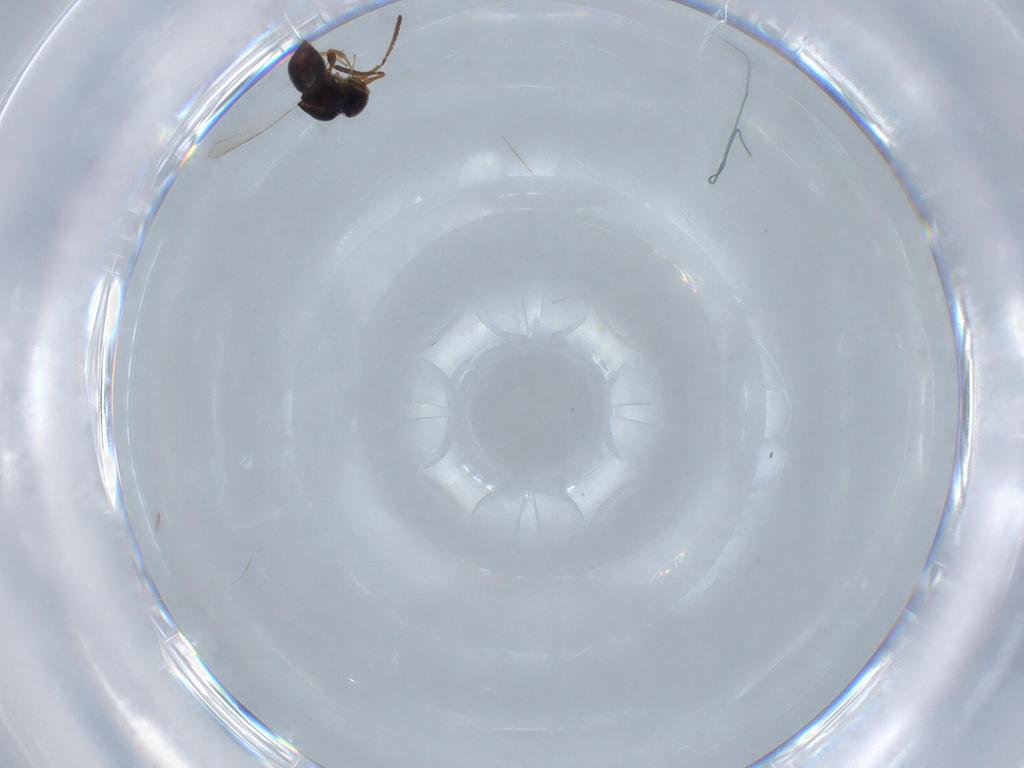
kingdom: Animalia
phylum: Arthropoda
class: Insecta
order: Hymenoptera
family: Ceraphronidae
